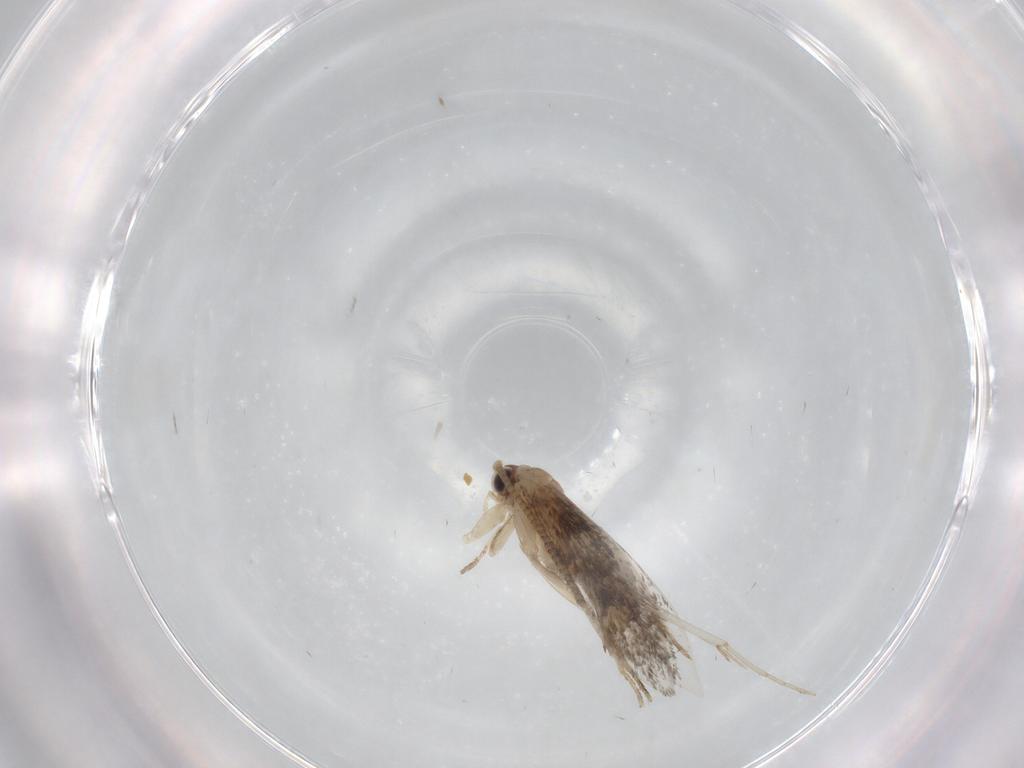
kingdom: Animalia
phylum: Arthropoda
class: Insecta
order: Lepidoptera
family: Tineidae
